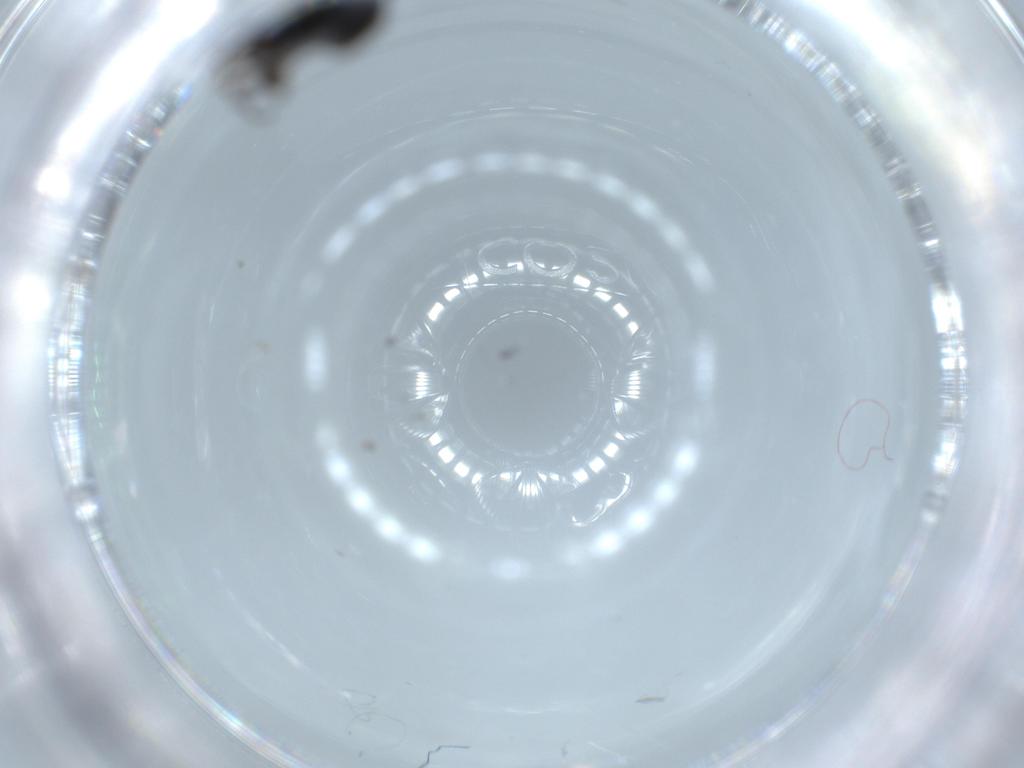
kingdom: Animalia
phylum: Arthropoda
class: Insecta
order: Diptera
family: Phoridae
